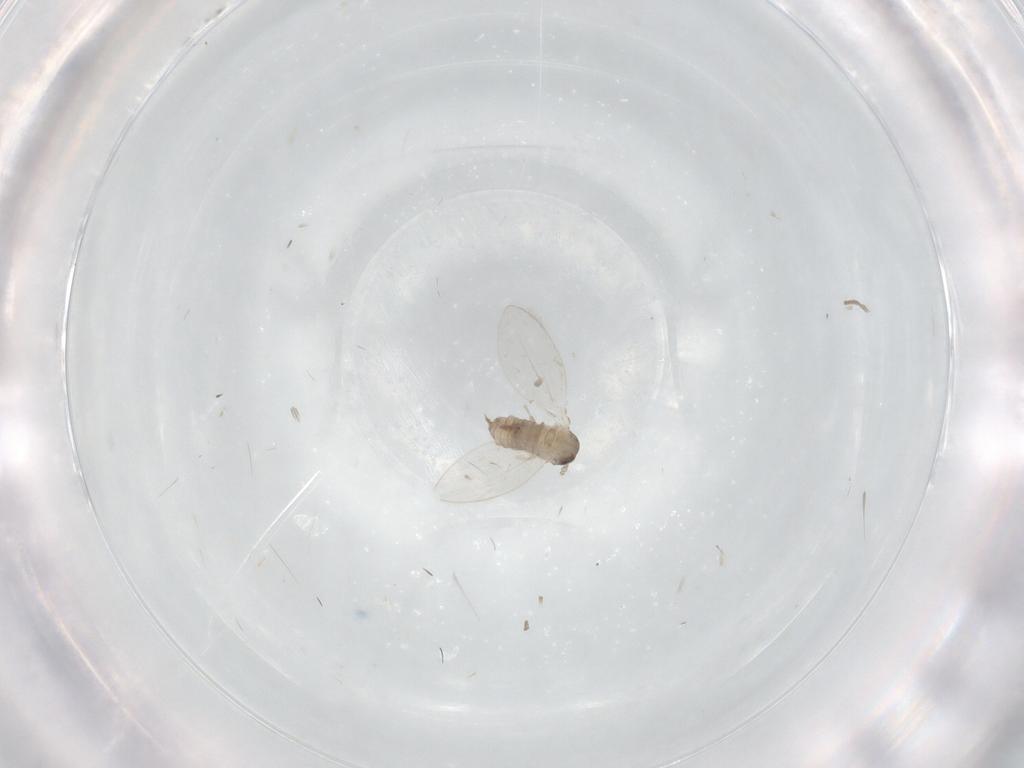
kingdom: Animalia
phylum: Arthropoda
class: Insecta
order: Diptera
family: Psychodidae
